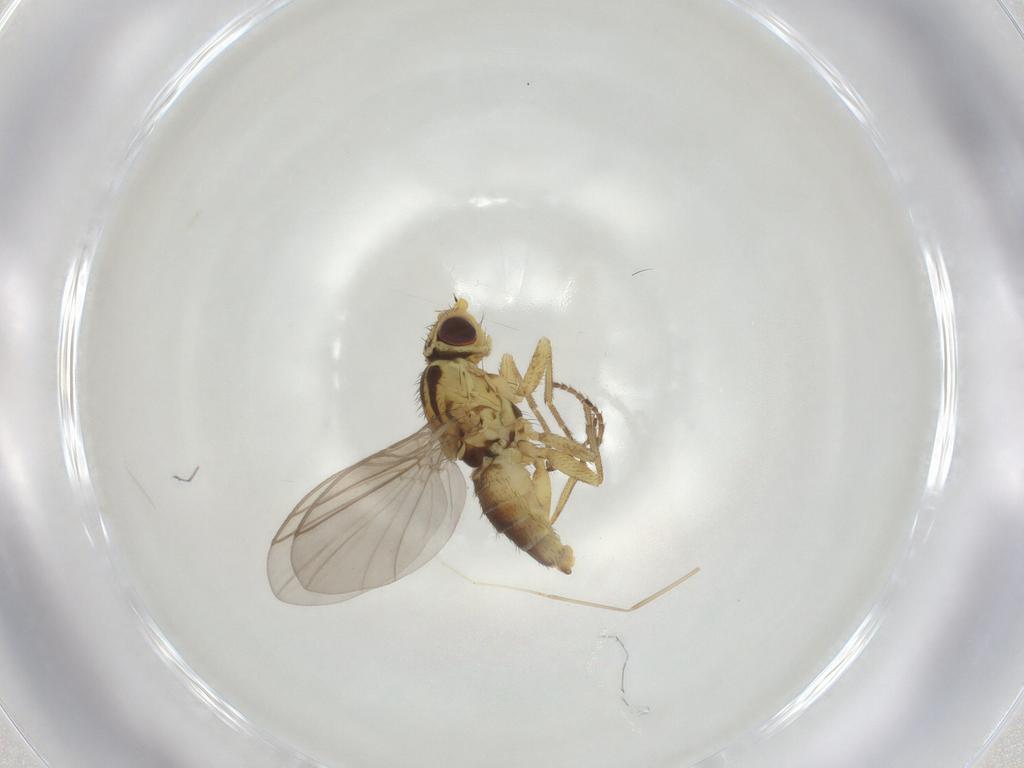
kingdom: Animalia
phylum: Arthropoda
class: Insecta
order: Diptera
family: Agromyzidae
